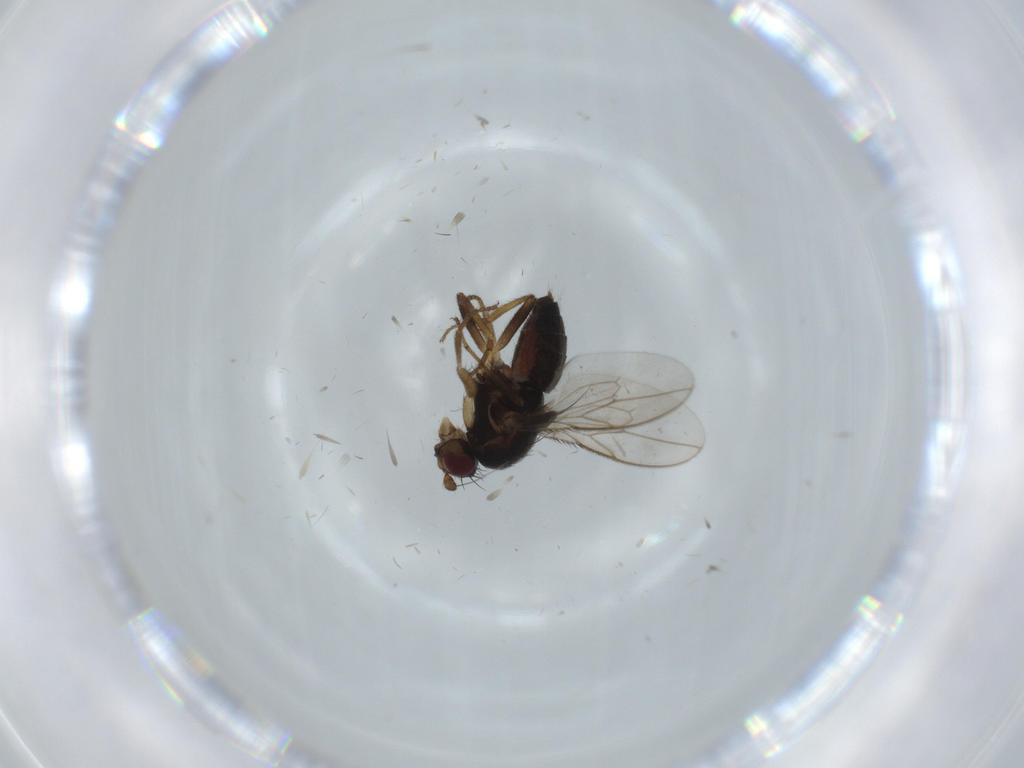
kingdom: Animalia
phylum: Arthropoda
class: Insecta
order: Diptera
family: Sphaeroceridae
